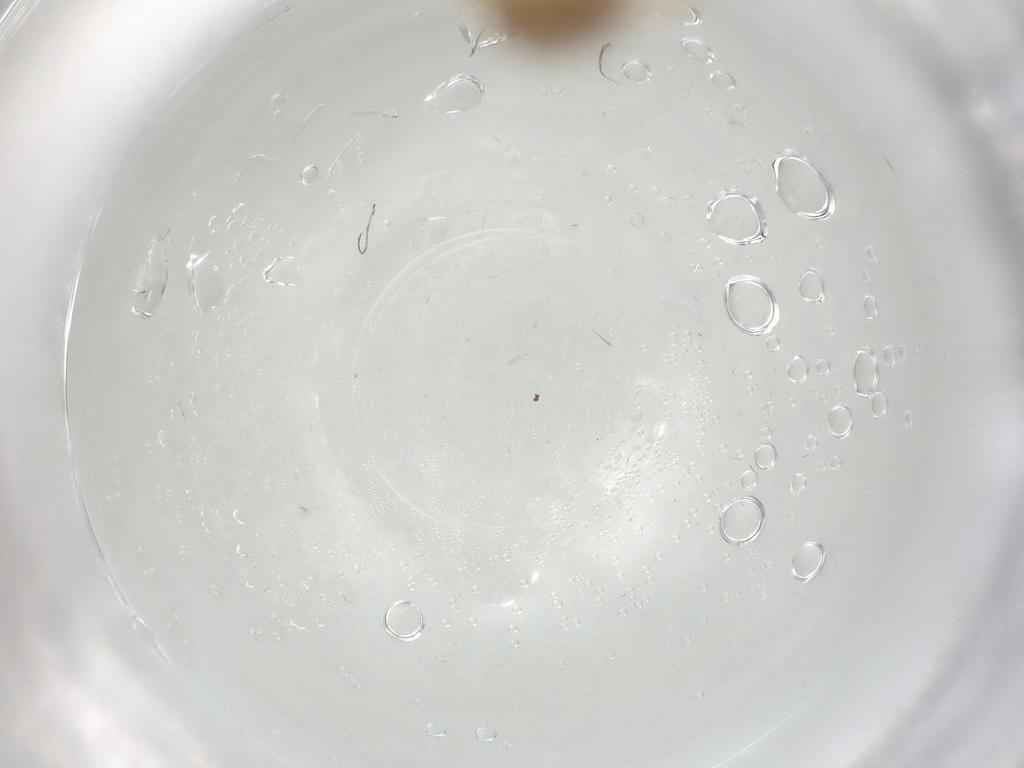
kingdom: Animalia
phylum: Arthropoda
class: Insecta
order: Hemiptera
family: Cicadellidae
